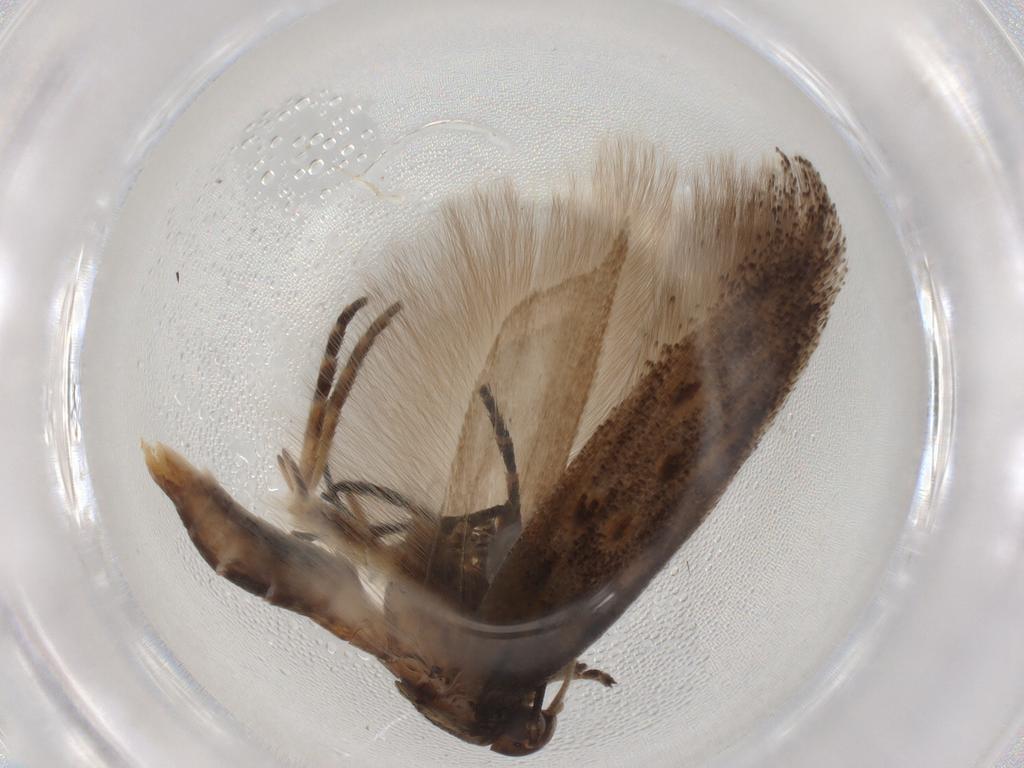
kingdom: Animalia
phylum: Arthropoda
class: Insecta
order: Lepidoptera
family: Gelechiidae
